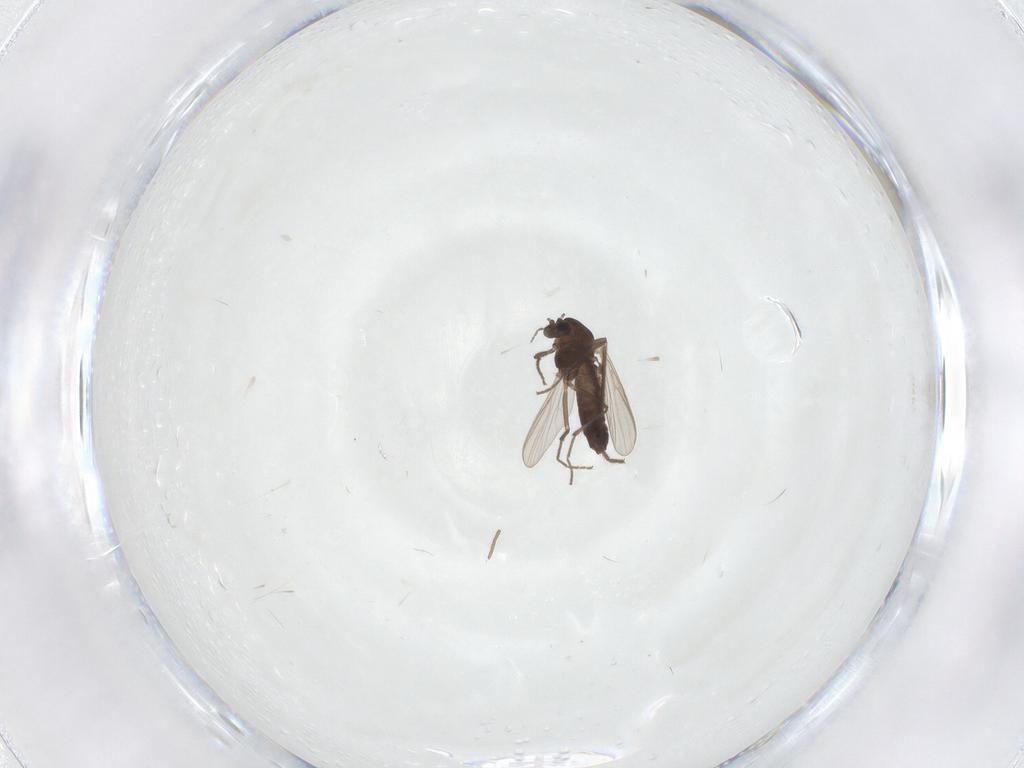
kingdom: Animalia
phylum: Arthropoda
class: Insecta
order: Diptera
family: Chironomidae
